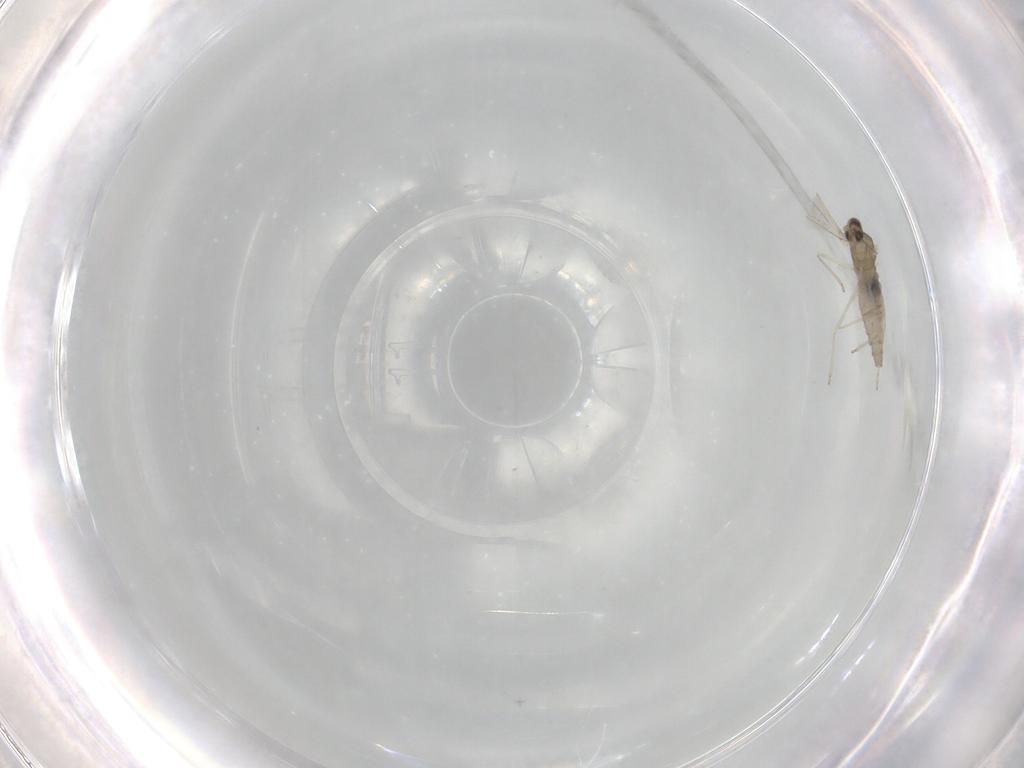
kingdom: Animalia
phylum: Arthropoda
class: Insecta
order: Diptera
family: Cecidomyiidae
